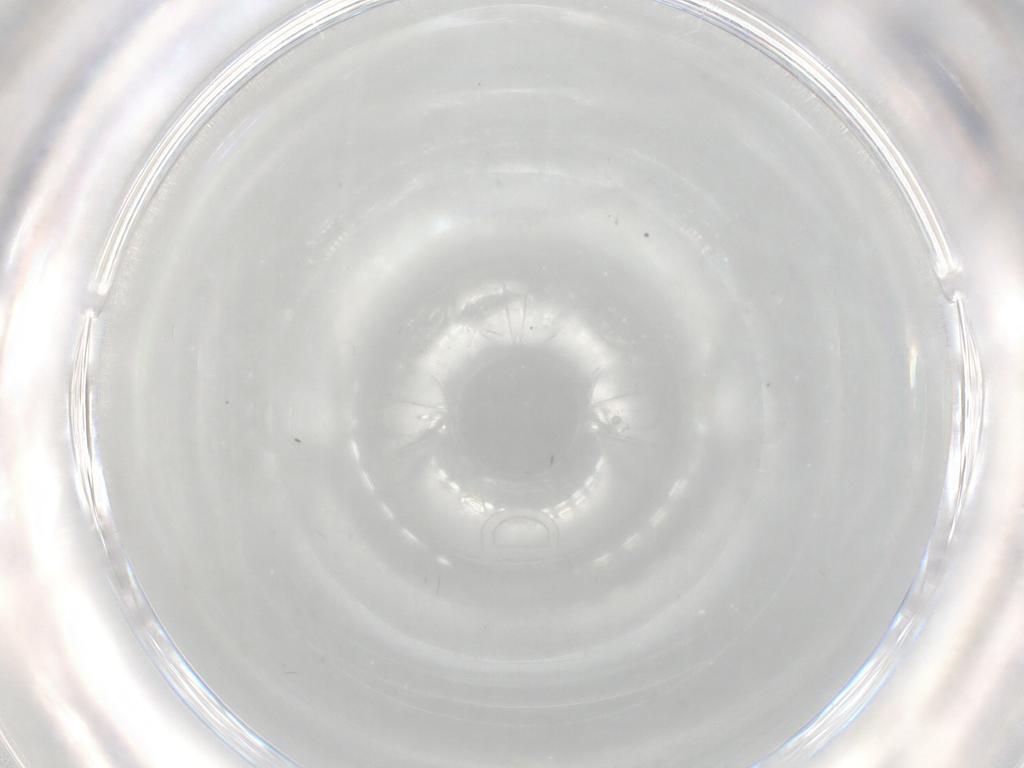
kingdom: Animalia
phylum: Arthropoda
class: Insecta
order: Diptera
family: Cecidomyiidae
